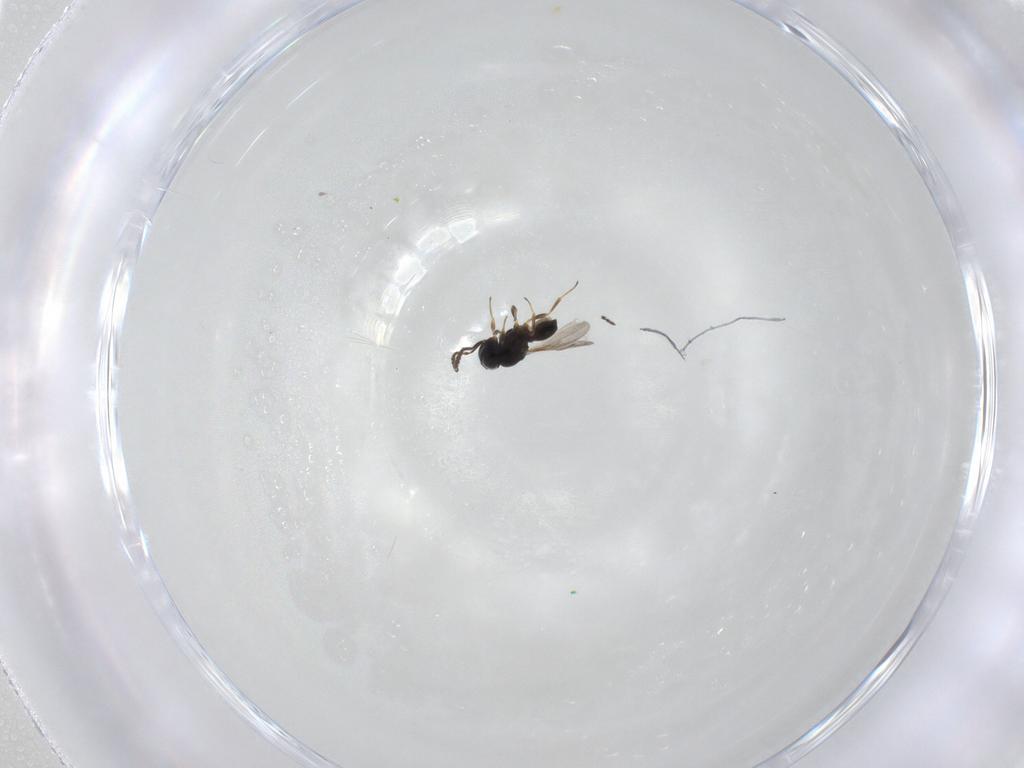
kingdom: Animalia
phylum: Arthropoda
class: Insecta
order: Hymenoptera
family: Scelionidae
